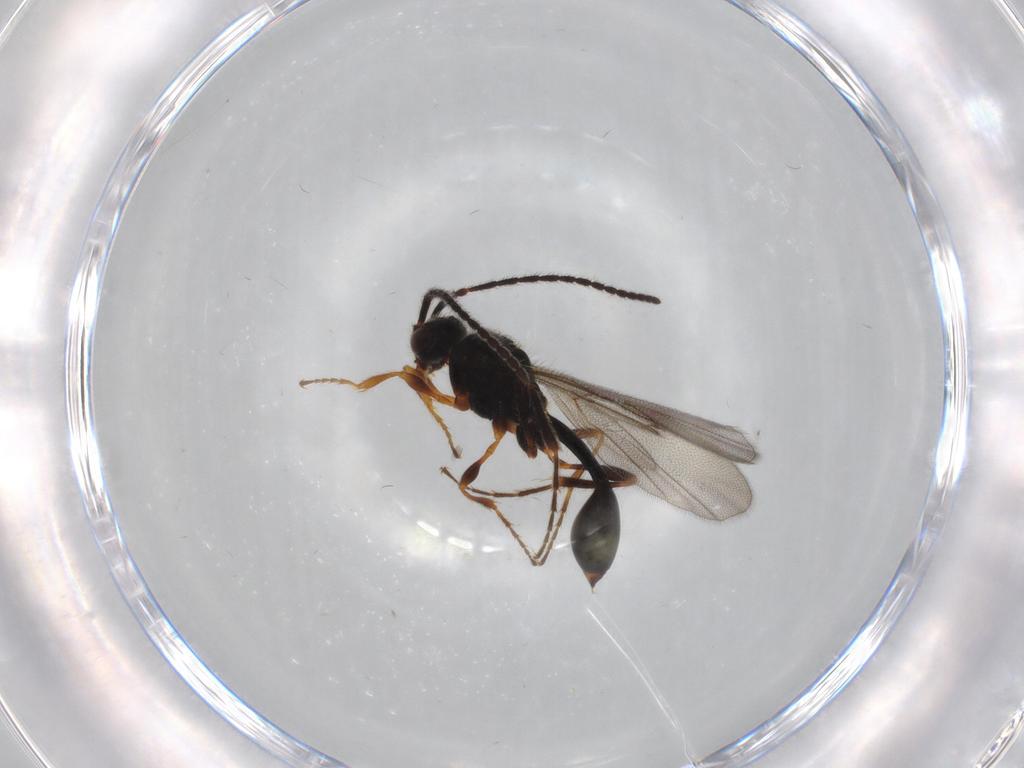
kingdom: Animalia
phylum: Arthropoda
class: Insecta
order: Hymenoptera
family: Diapriidae
